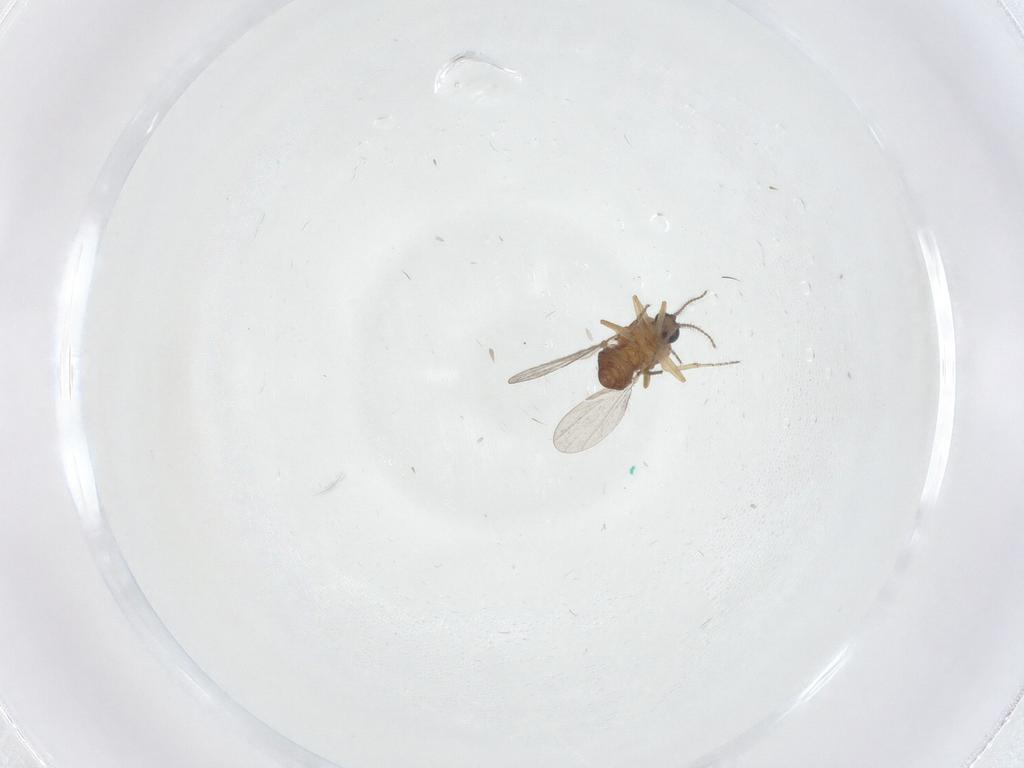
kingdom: Animalia
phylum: Arthropoda
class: Insecta
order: Diptera
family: Ceratopogonidae
